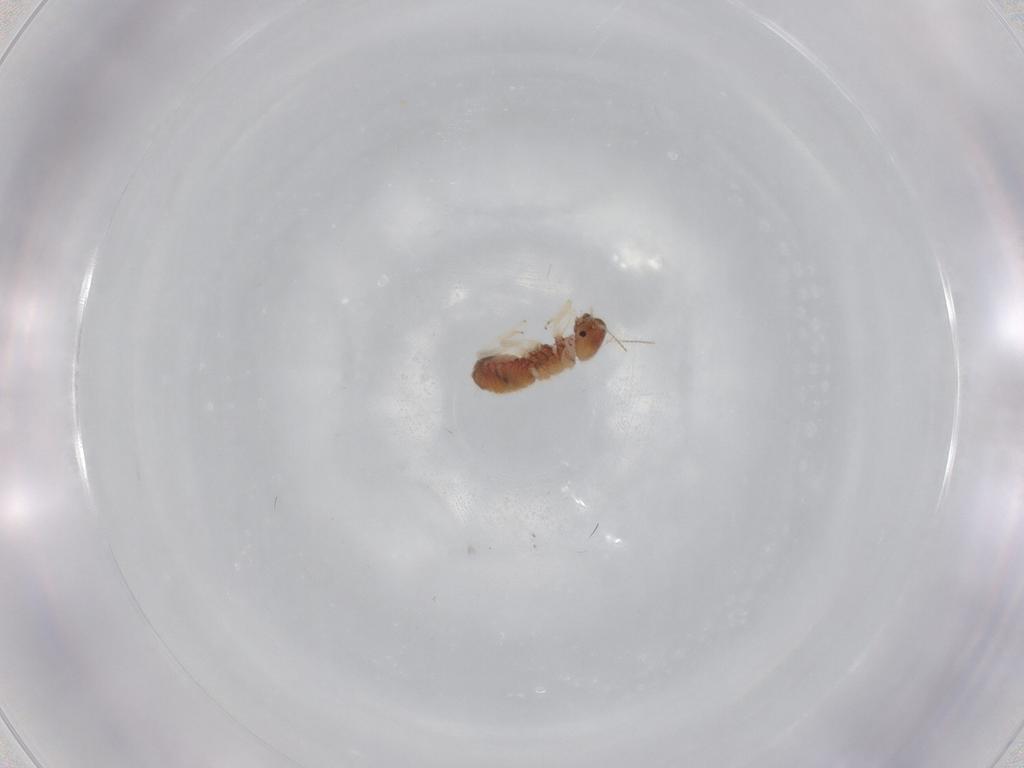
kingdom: Animalia
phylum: Arthropoda
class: Insecta
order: Psocodea
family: Archipsocidae
